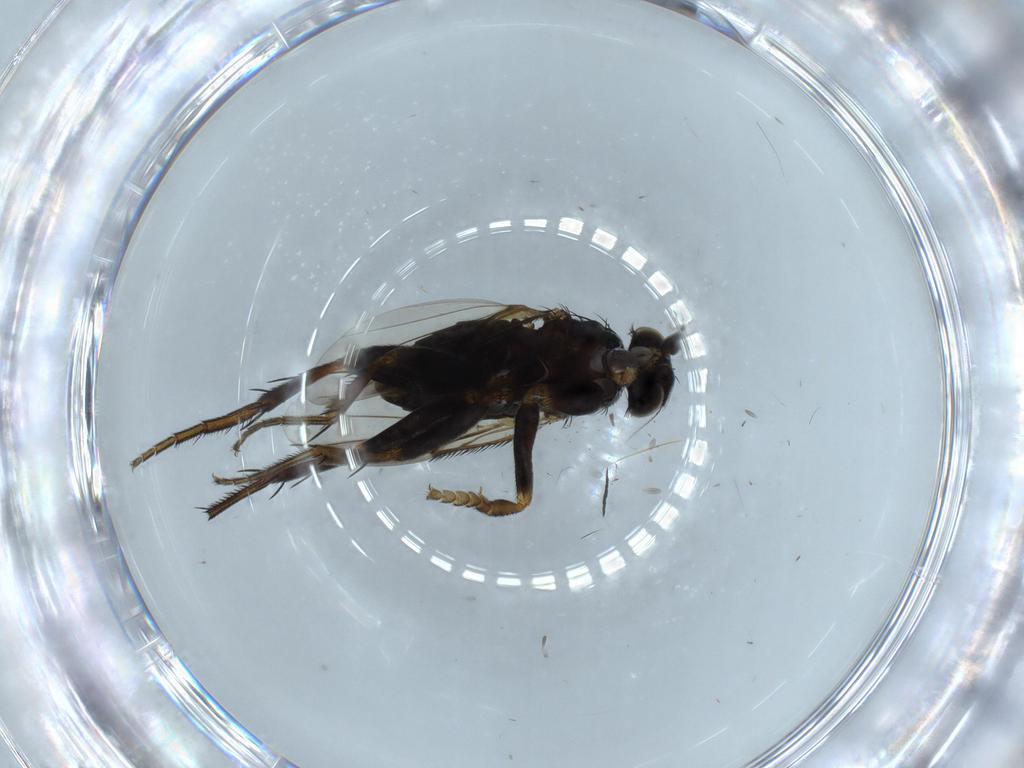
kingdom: Animalia
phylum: Arthropoda
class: Insecta
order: Diptera
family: Phoridae
